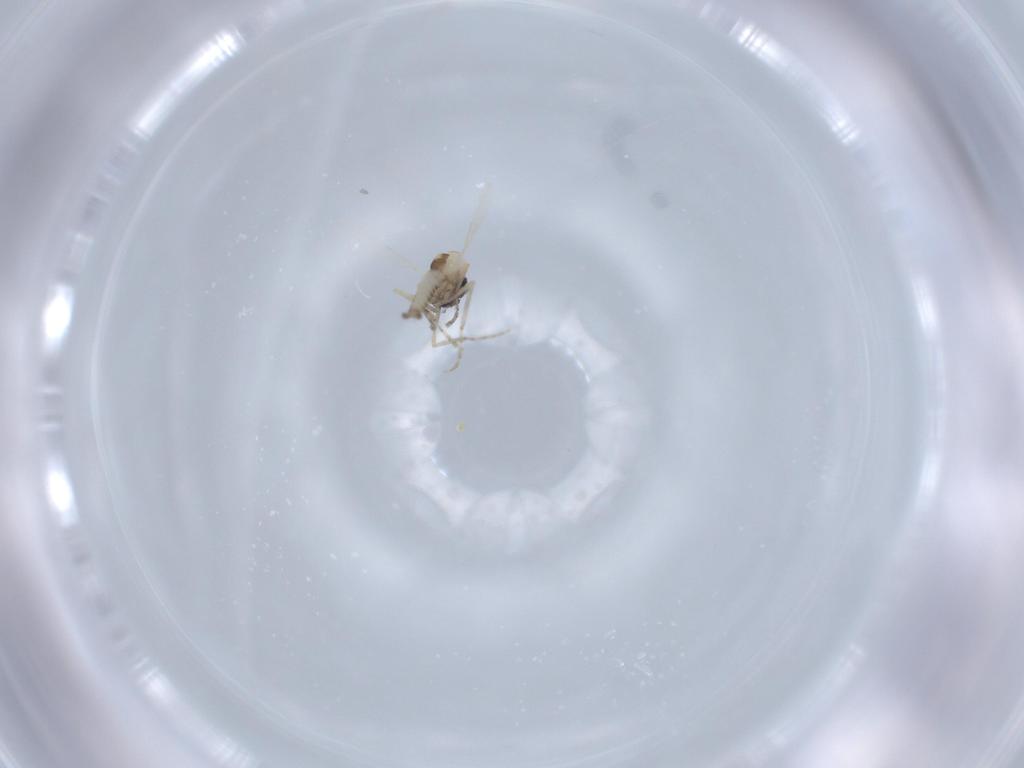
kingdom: Animalia
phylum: Arthropoda
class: Insecta
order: Diptera
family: Ceratopogonidae
